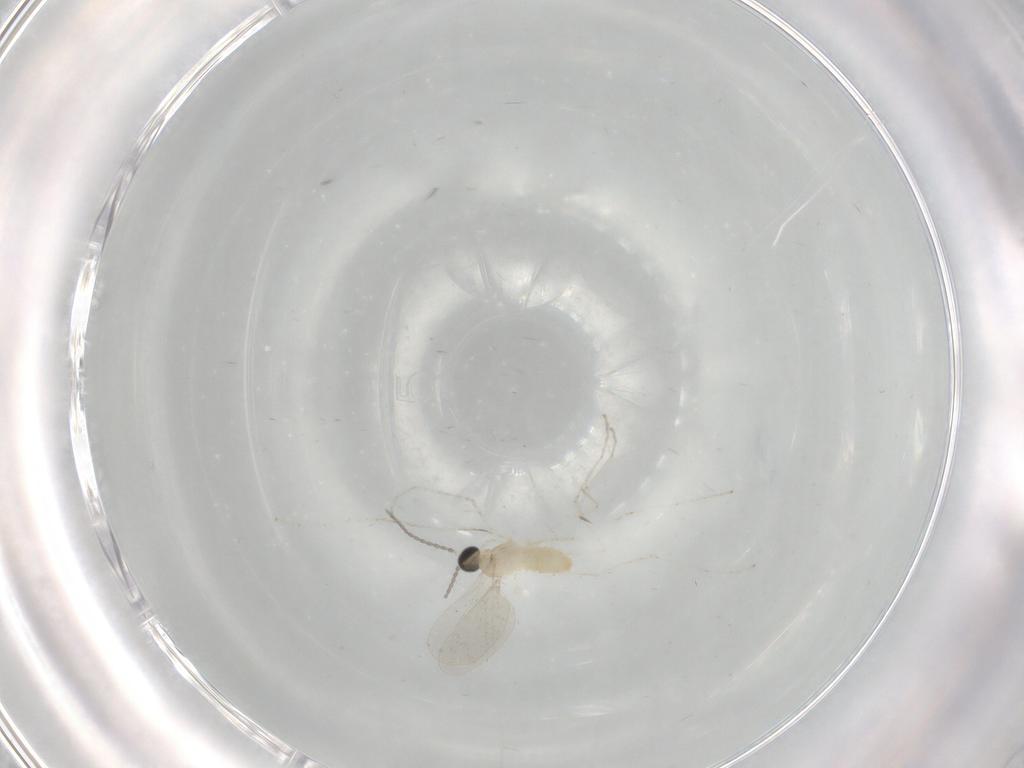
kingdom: Animalia
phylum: Arthropoda
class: Insecta
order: Diptera
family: Cecidomyiidae
